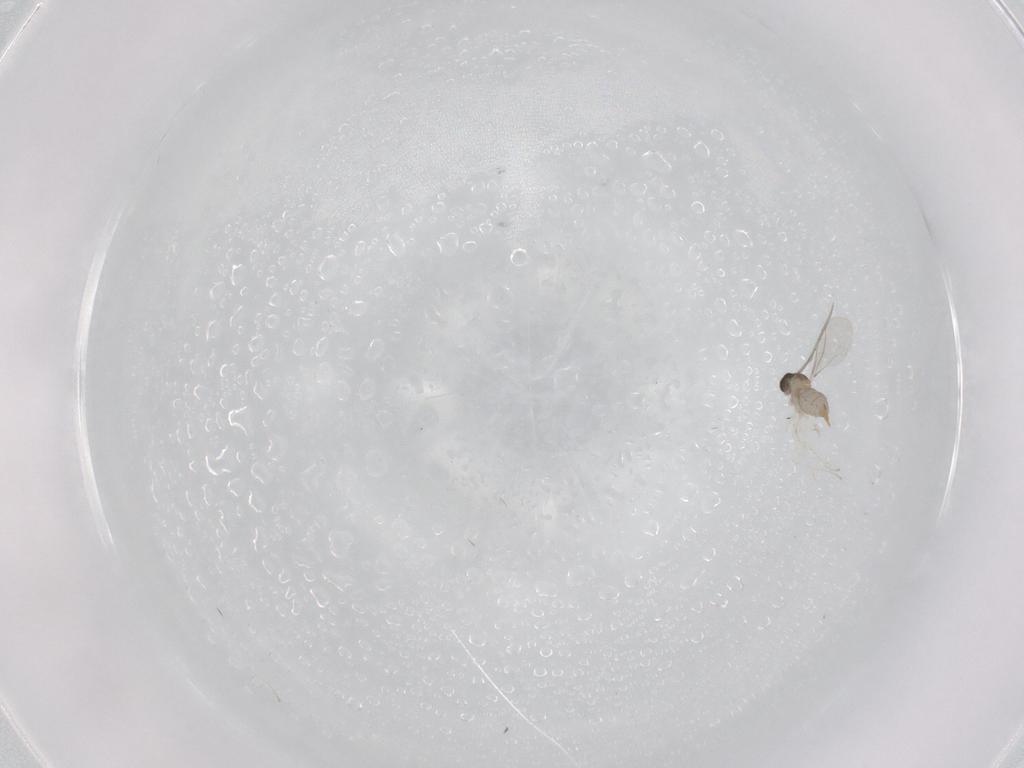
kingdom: Animalia
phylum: Arthropoda
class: Insecta
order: Diptera
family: Cecidomyiidae
